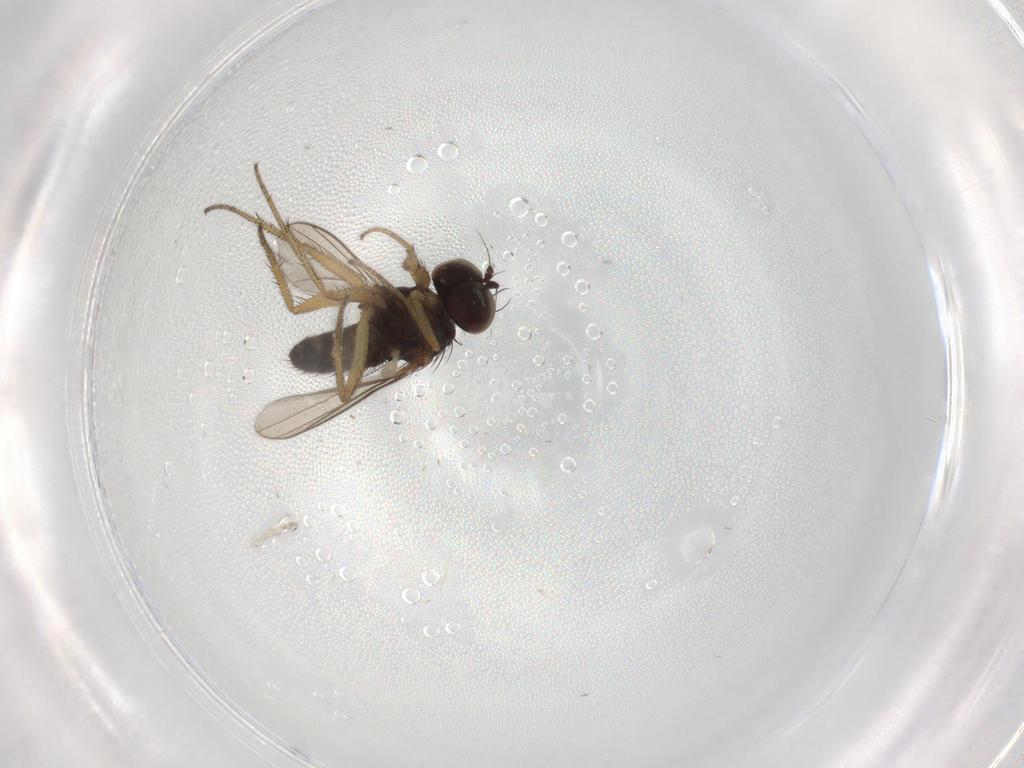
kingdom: Animalia
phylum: Arthropoda
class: Insecta
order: Diptera
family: Dolichopodidae
